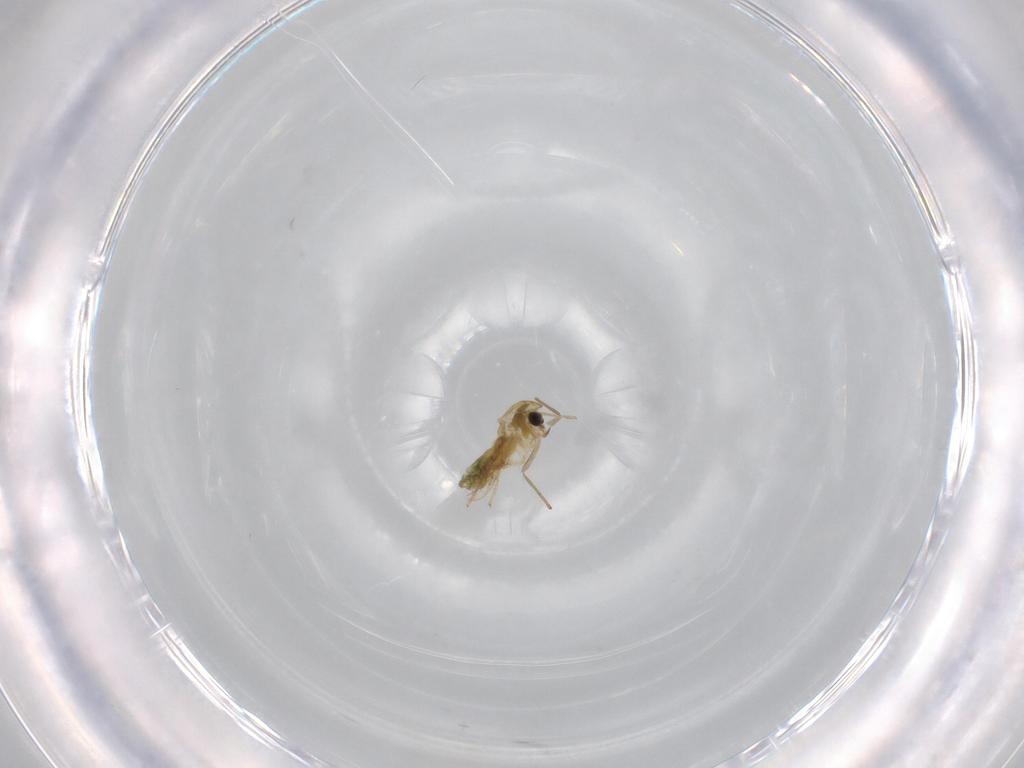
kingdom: Animalia
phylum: Arthropoda
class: Insecta
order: Diptera
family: Chironomidae
